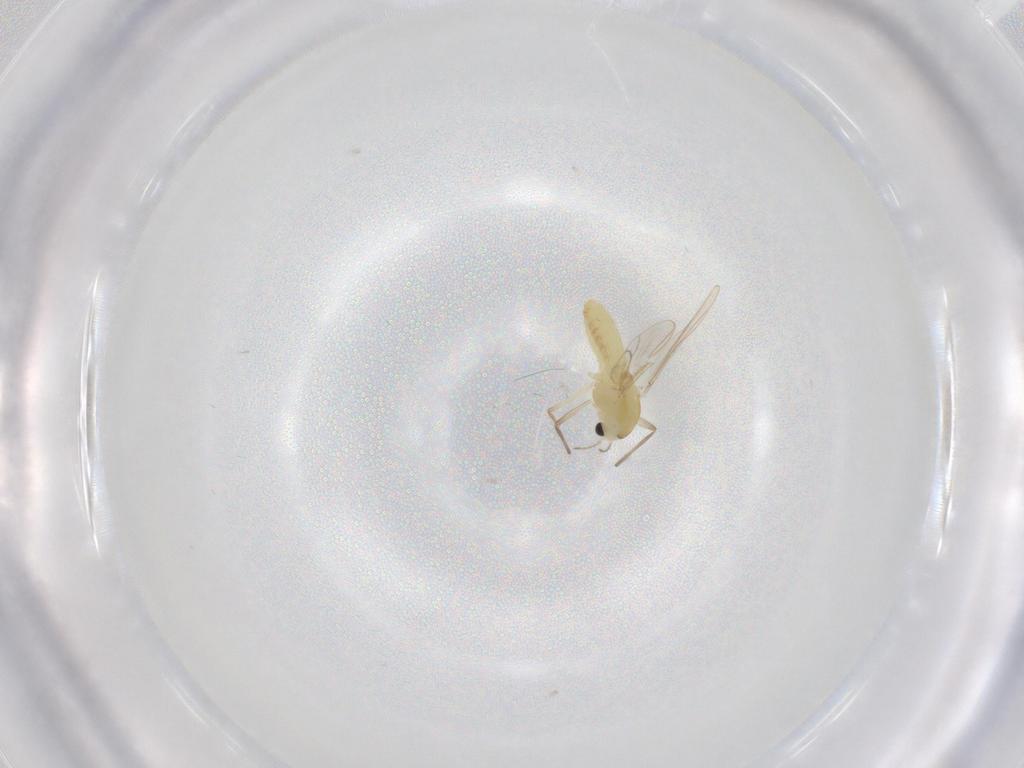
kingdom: Animalia
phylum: Arthropoda
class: Insecta
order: Diptera
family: Chironomidae
